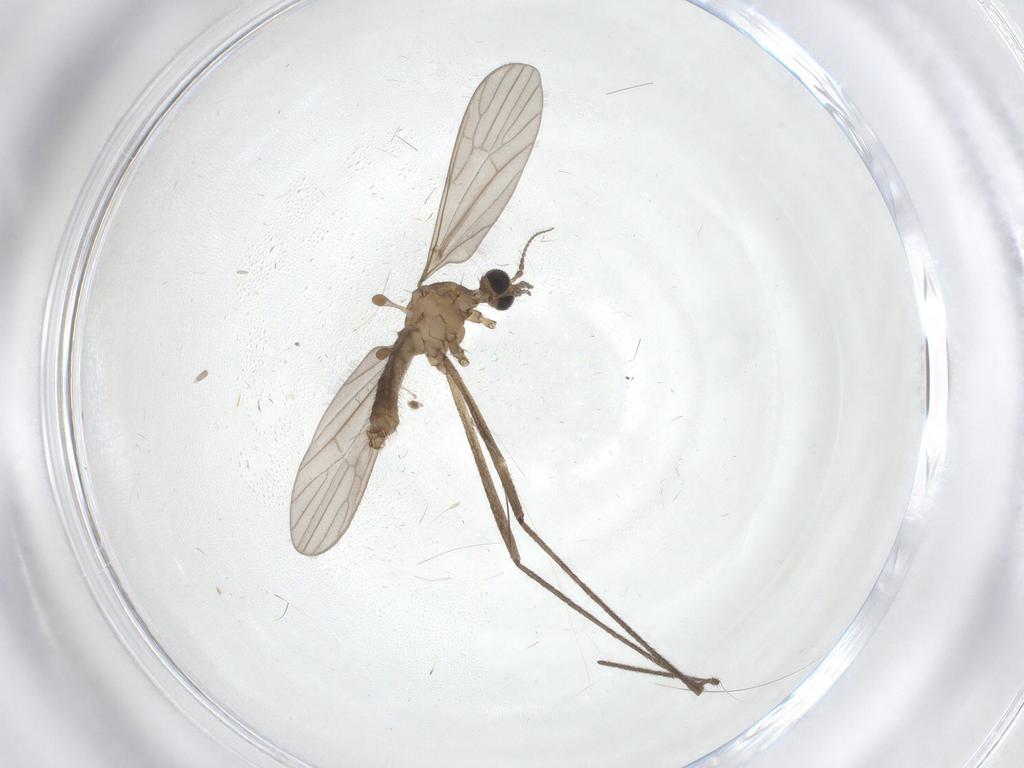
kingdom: Animalia
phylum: Arthropoda
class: Insecta
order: Diptera
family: Limoniidae
